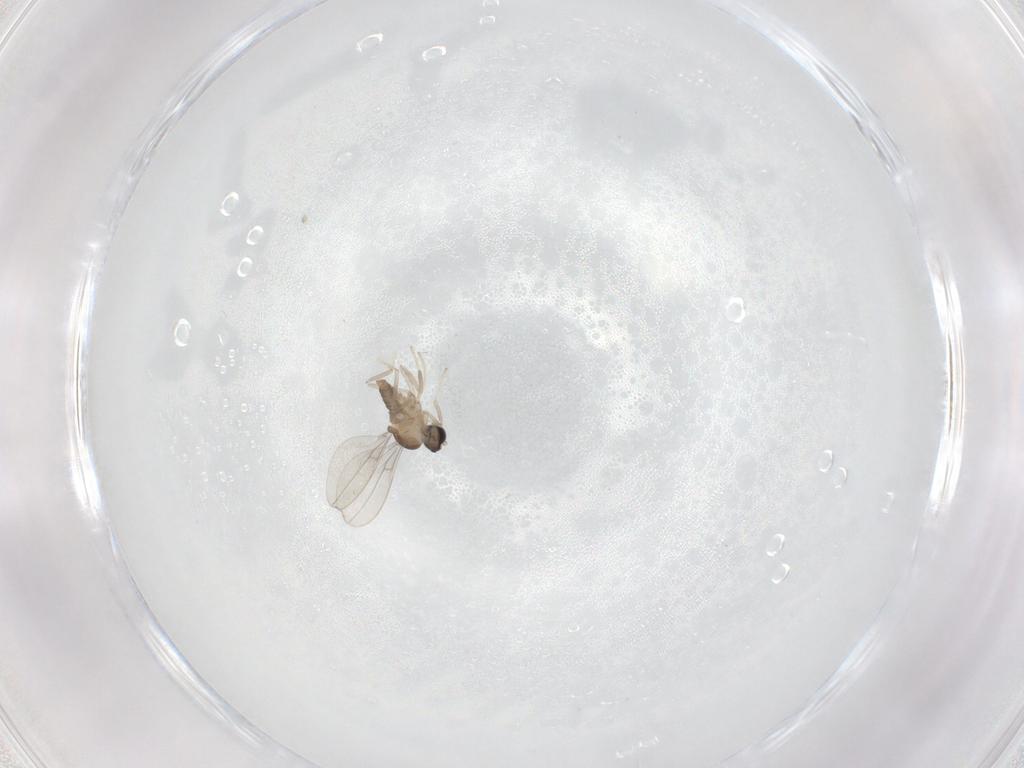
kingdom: Animalia
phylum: Arthropoda
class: Insecta
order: Diptera
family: Cecidomyiidae
